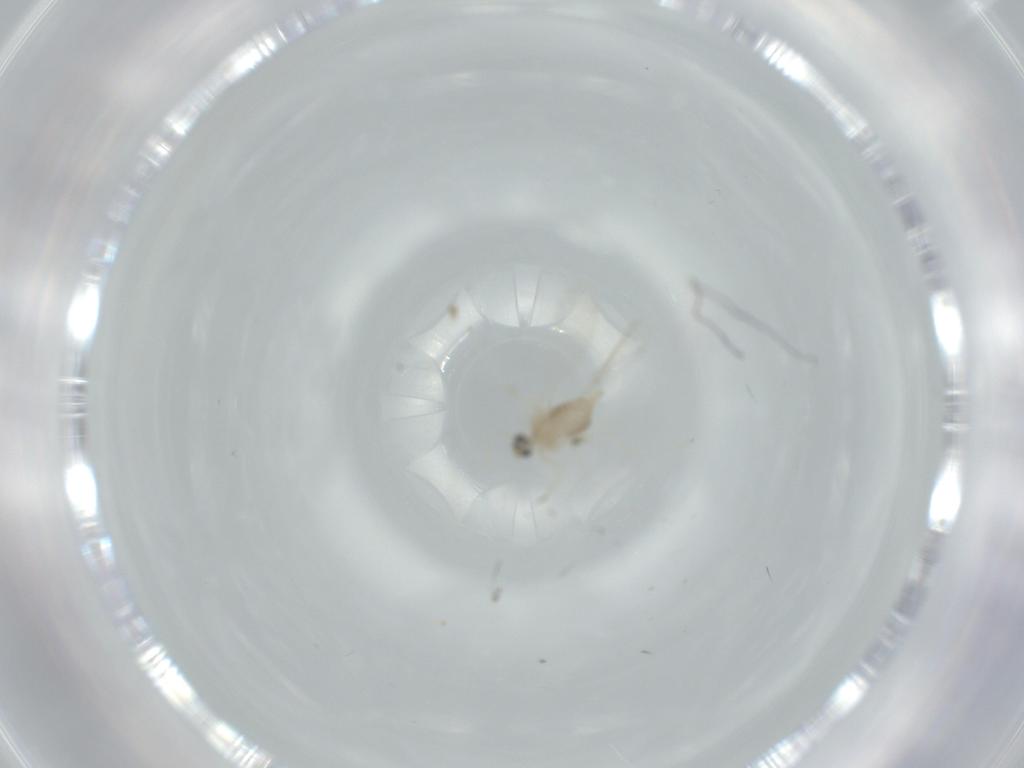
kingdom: Animalia
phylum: Arthropoda
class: Insecta
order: Diptera
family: Cecidomyiidae
